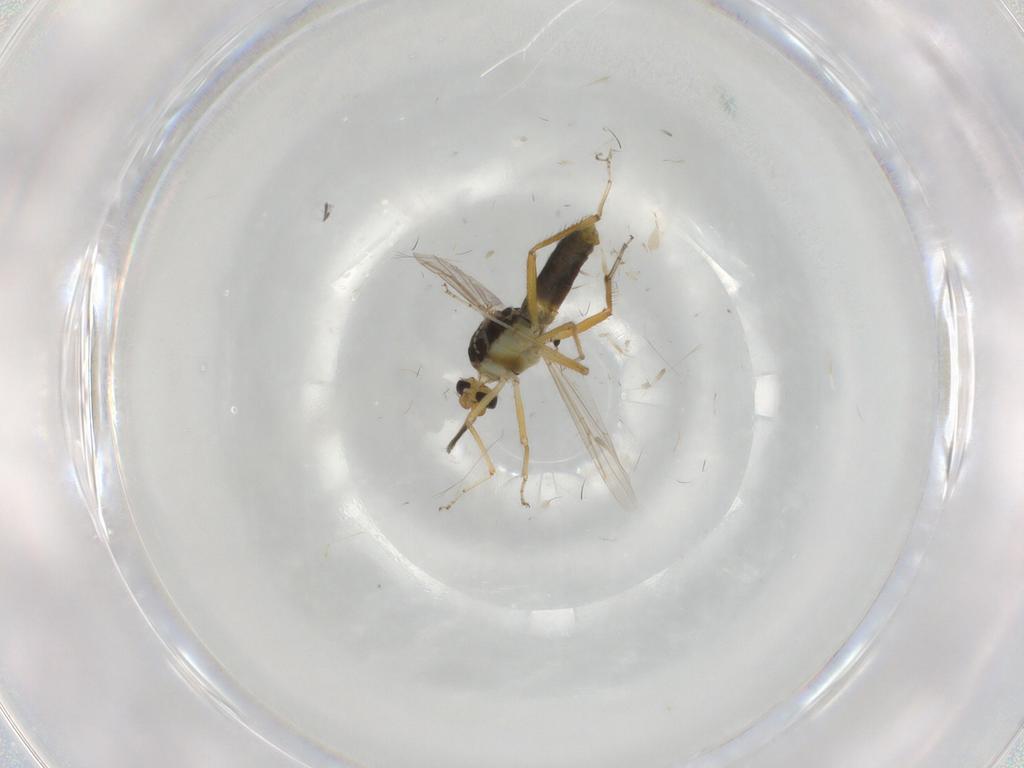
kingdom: Animalia
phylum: Arthropoda
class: Insecta
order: Diptera
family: Ceratopogonidae
